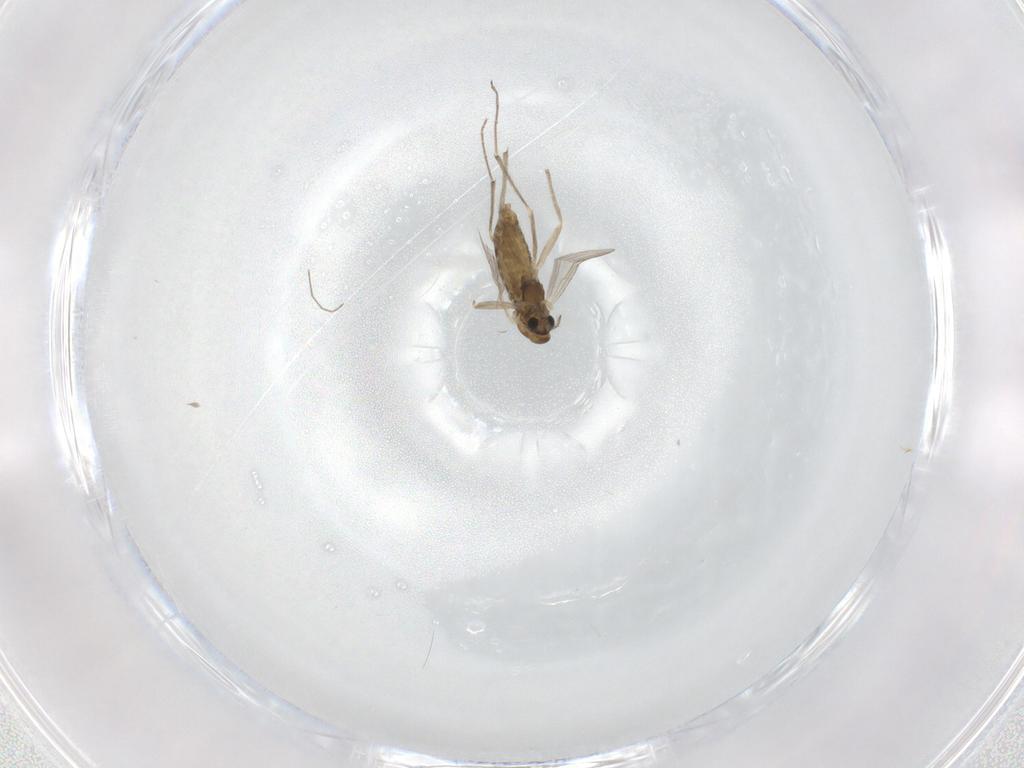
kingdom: Animalia
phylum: Arthropoda
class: Insecta
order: Diptera
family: Chironomidae
